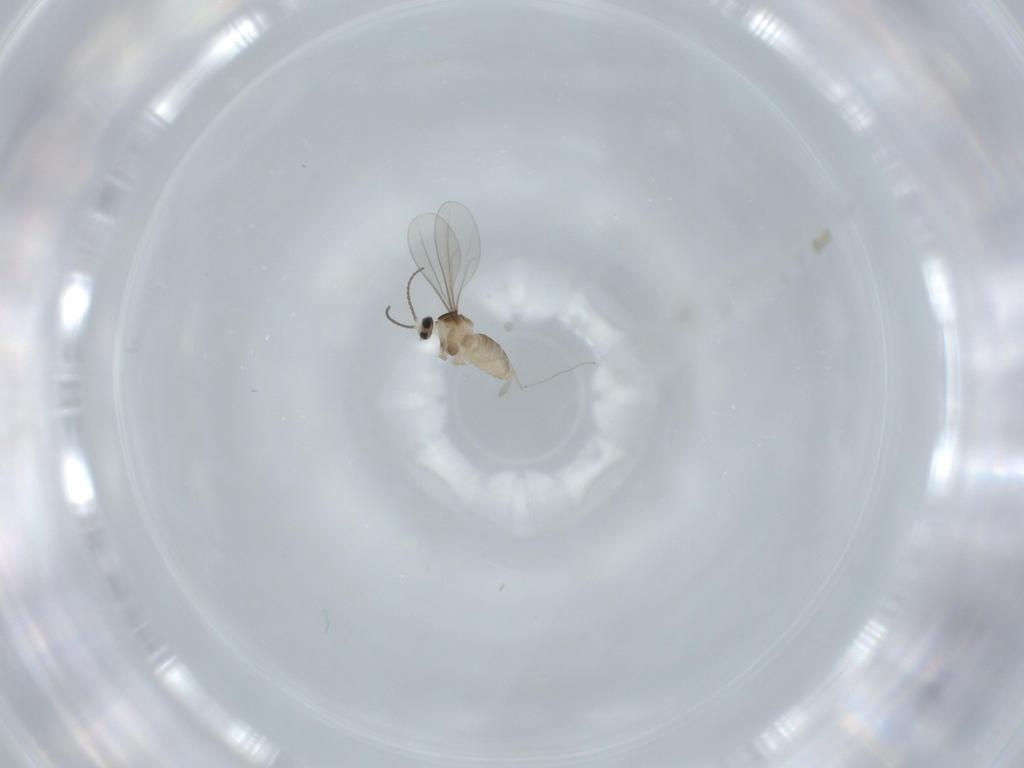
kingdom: Animalia
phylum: Arthropoda
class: Insecta
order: Diptera
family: Cecidomyiidae
